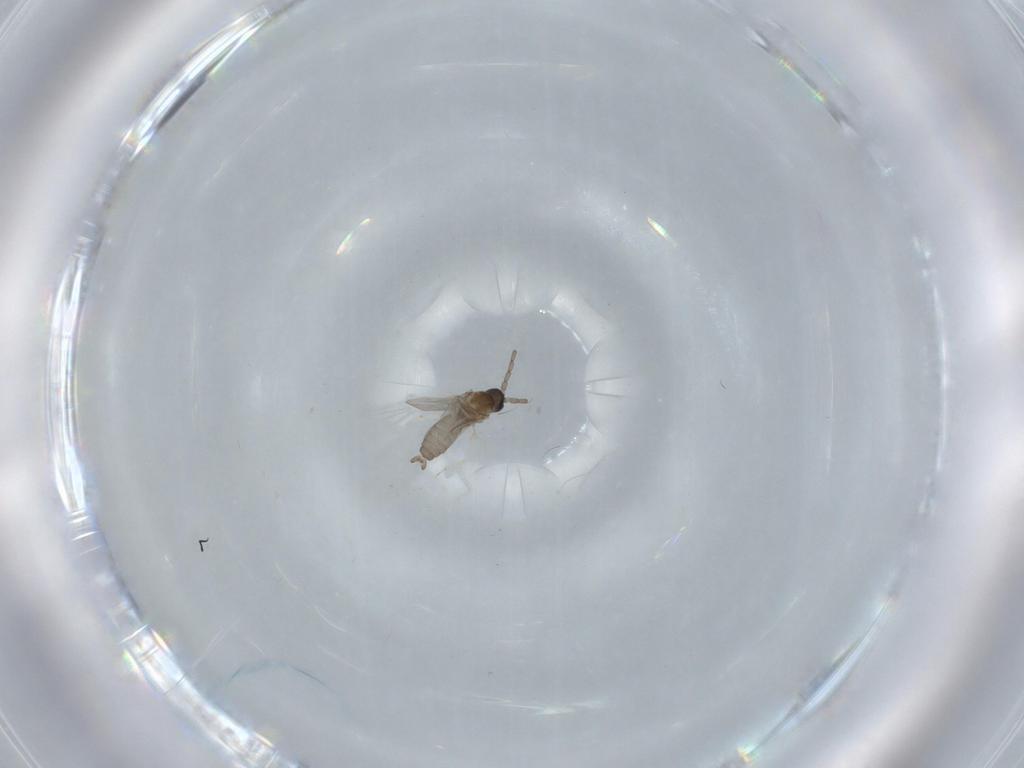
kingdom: Animalia
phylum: Arthropoda
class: Insecta
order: Diptera
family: Cecidomyiidae
